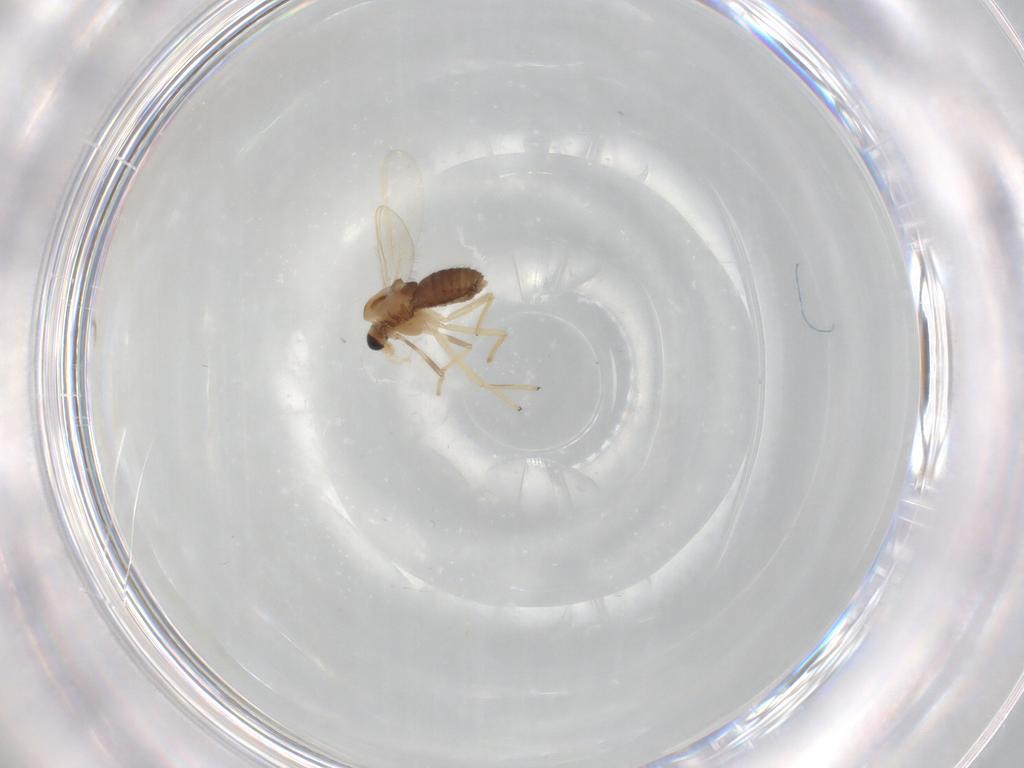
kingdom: Animalia
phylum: Arthropoda
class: Insecta
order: Diptera
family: Chironomidae
